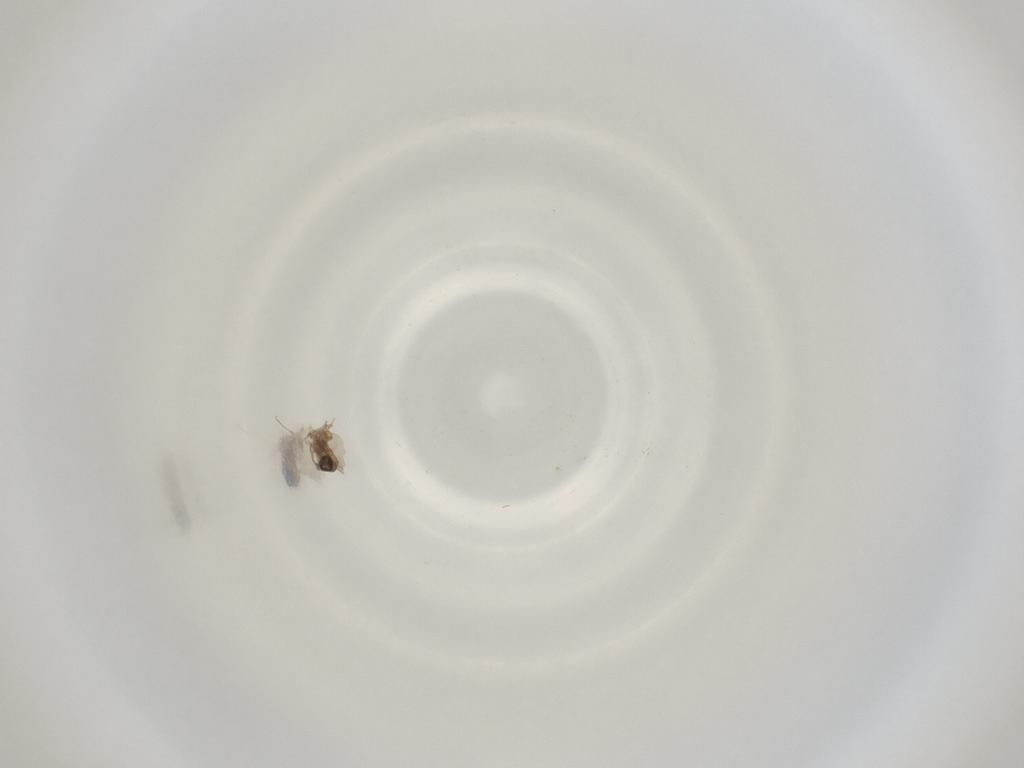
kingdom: Animalia
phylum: Arthropoda
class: Insecta
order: Diptera
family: Cecidomyiidae
